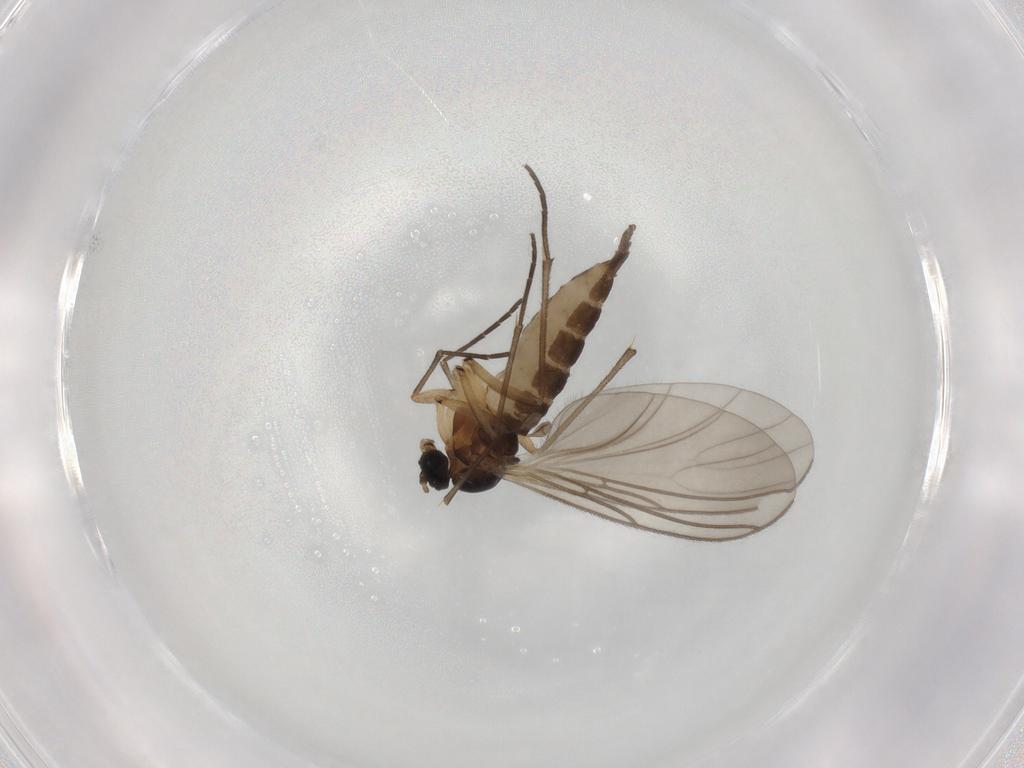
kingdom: Animalia
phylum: Arthropoda
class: Insecta
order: Diptera
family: Sciaridae
